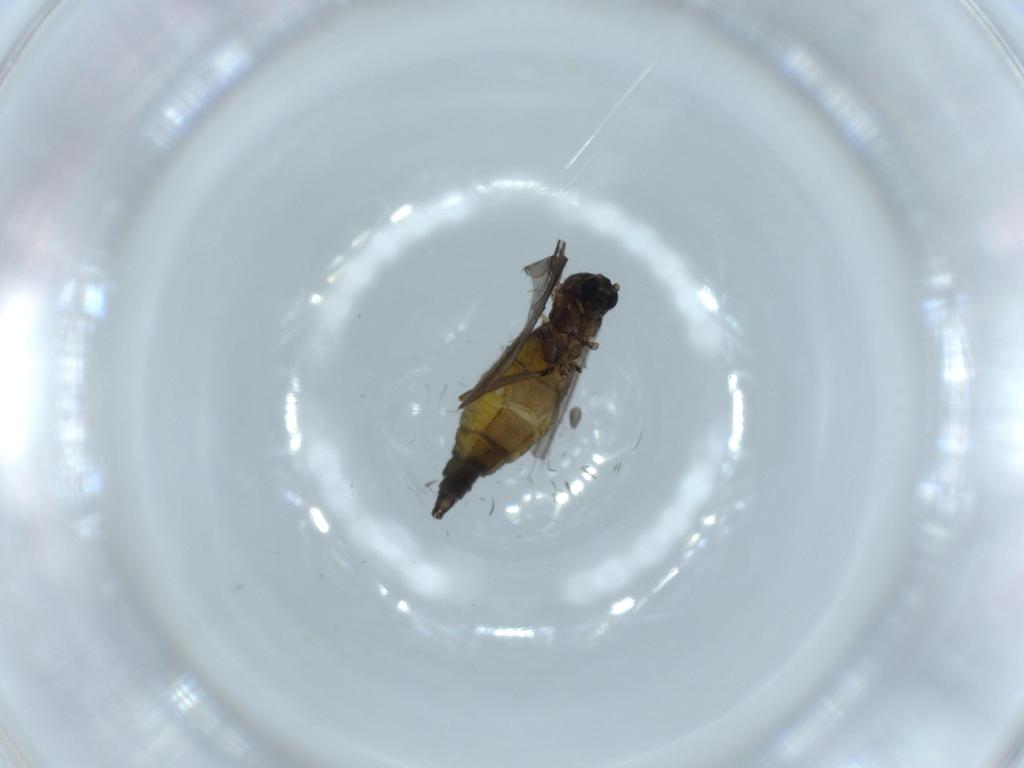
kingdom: Animalia
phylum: Arthropoda
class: Insecta
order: Diptera
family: Sciaridae
